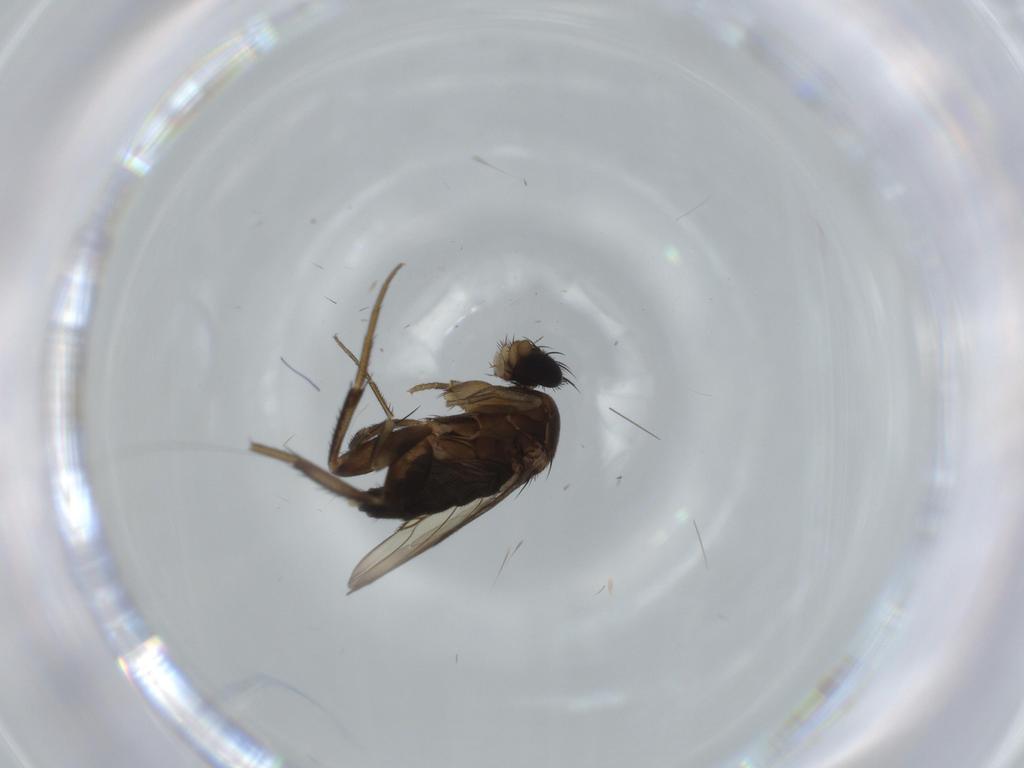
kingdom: Animalia
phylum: Arthropoda
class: Insecta
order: Diptera
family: Phoridae
